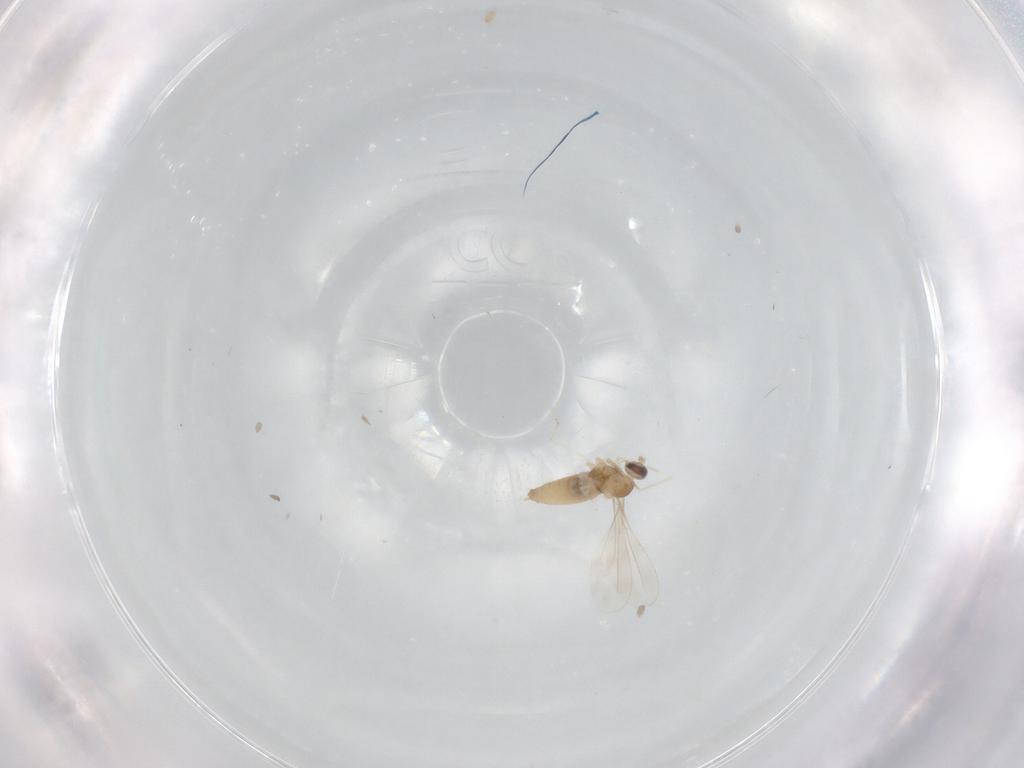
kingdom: Animalia
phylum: Arthropoda
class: Insecta
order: Diptera
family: Cecidomyiidae
